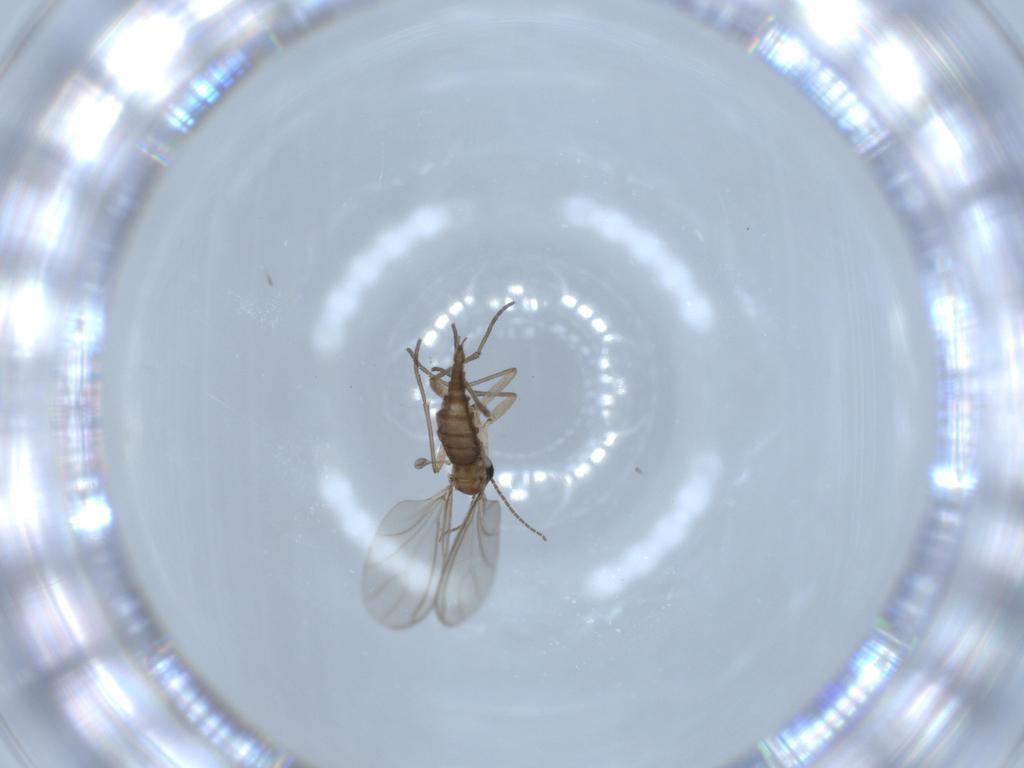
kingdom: Animalia
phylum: Arthropoda
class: Insecta
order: Diptera
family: Sciaridae
